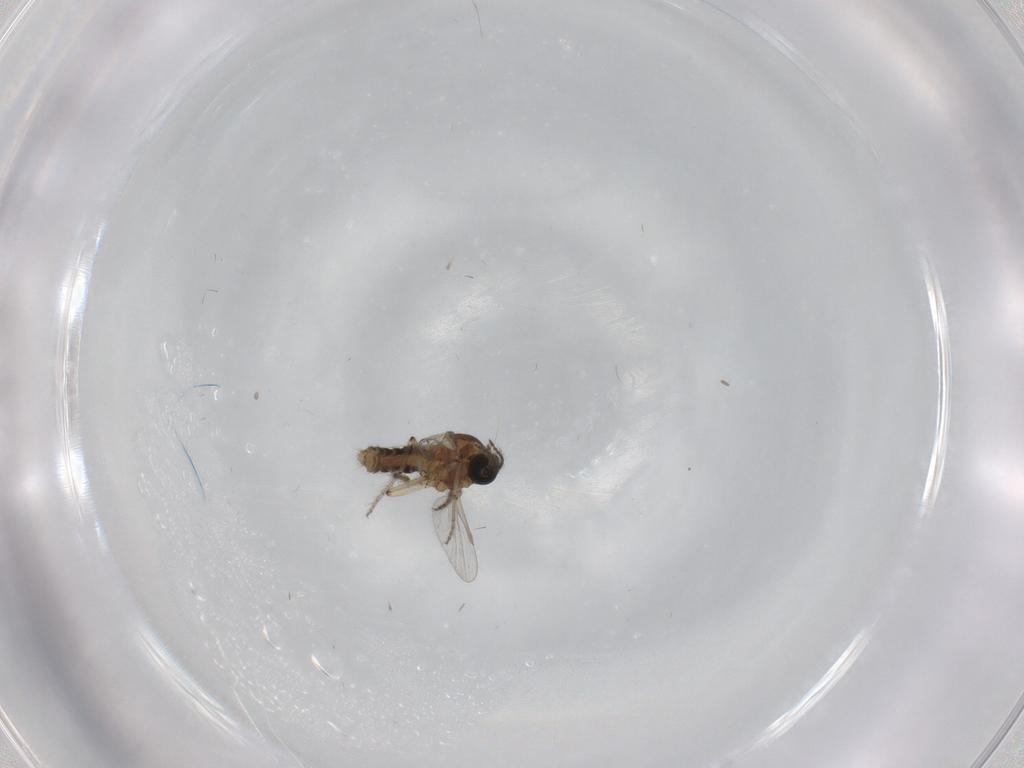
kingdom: Animalia
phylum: Arthropoda
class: Insecta
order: Diptera
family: Ceratopogonidae
